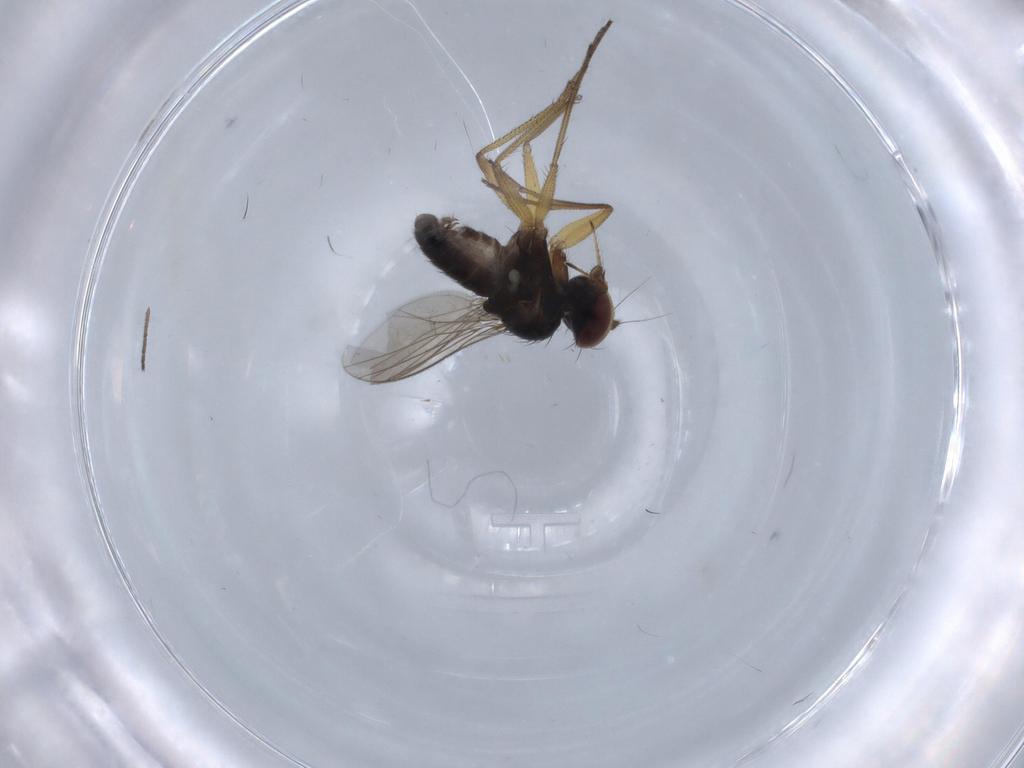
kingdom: Animalia
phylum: Arthropoda
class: Insecta
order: Diptera
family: Dolichopodidae
